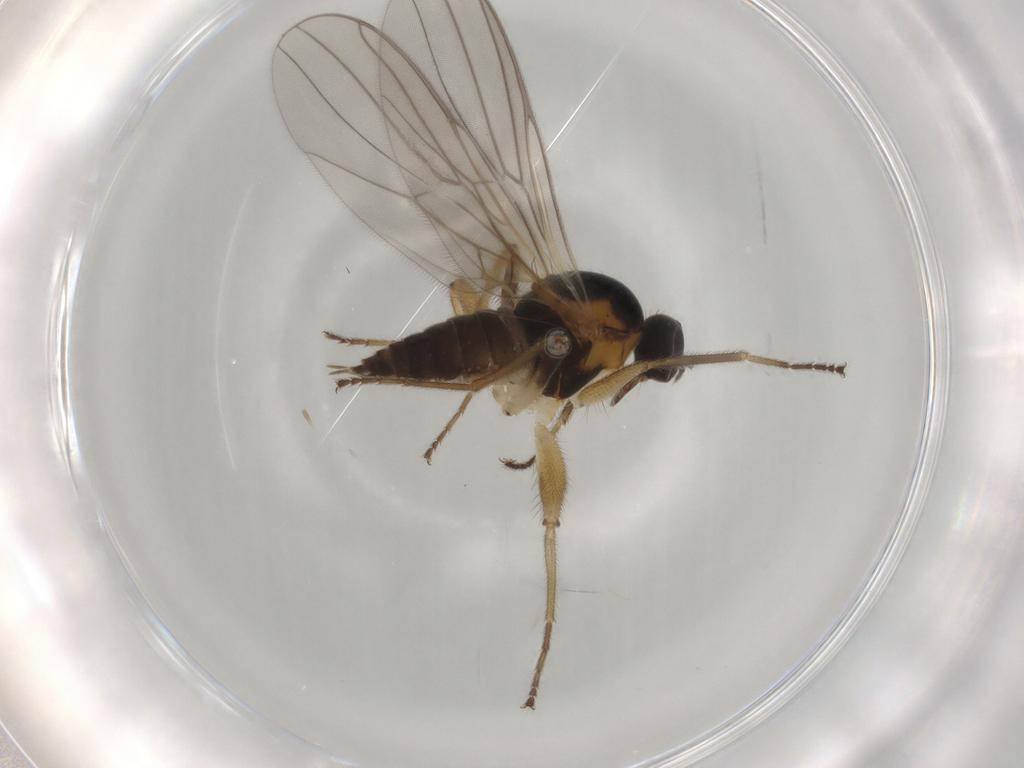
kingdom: Animalia
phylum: Arthropoda
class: Insecta
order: Diptera
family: Hybotidae
